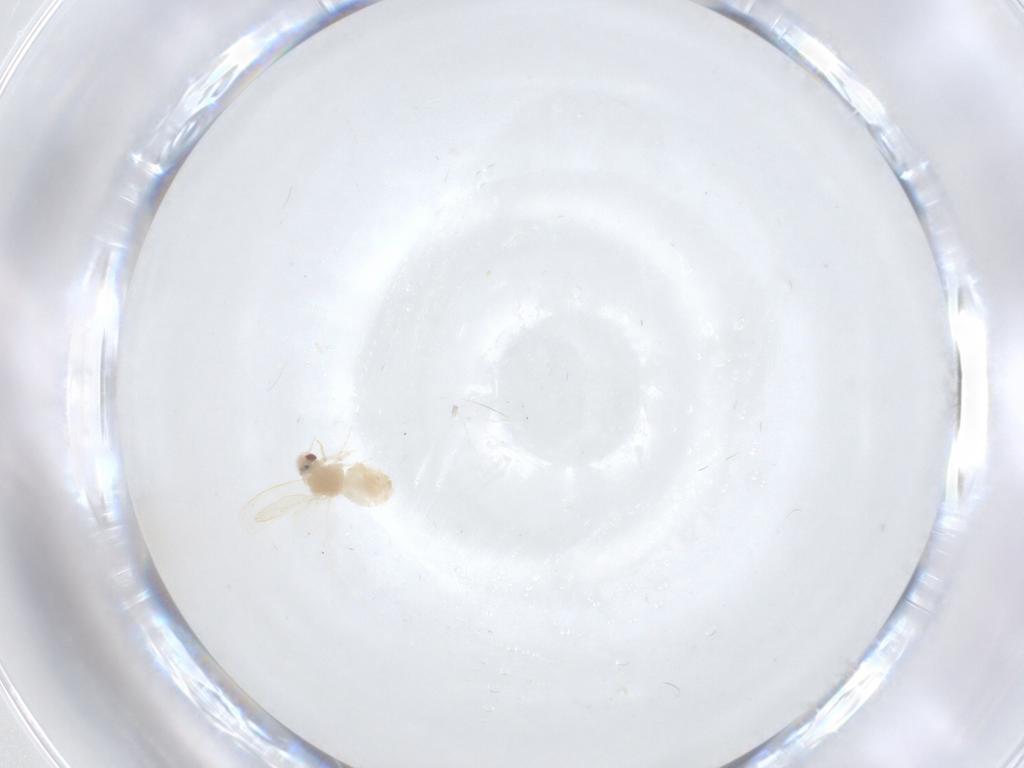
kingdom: Animalia
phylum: Arthropoda
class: Insecta
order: Hemiptera
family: Aleyrodidae
